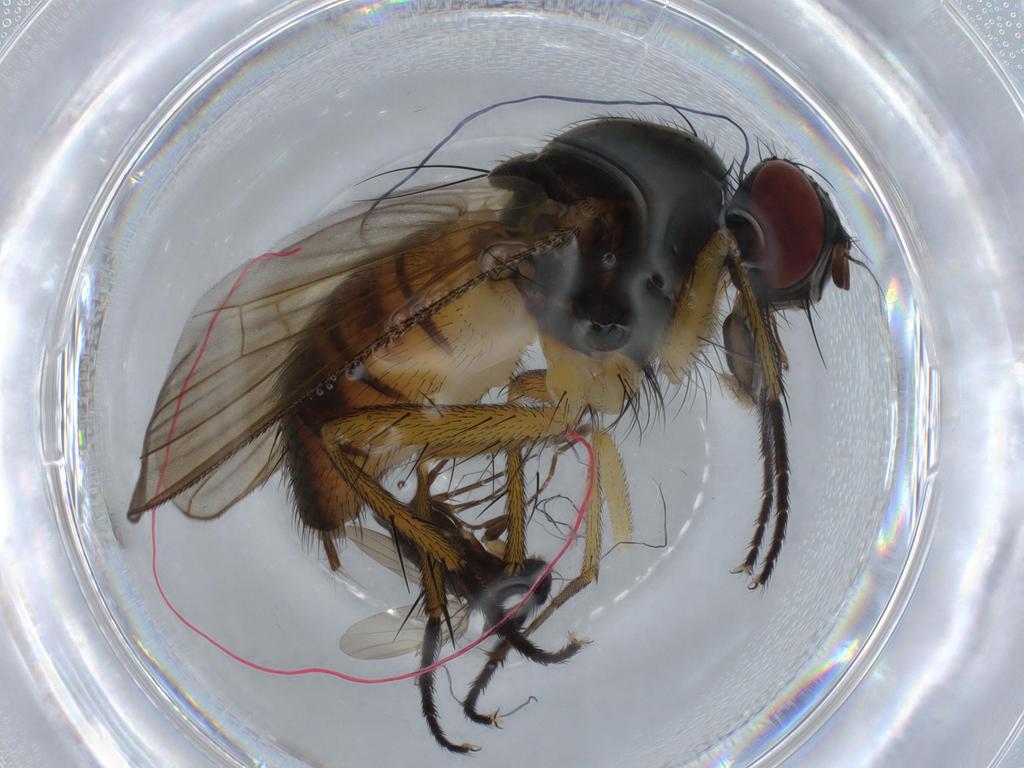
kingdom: Animalia
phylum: Arthropoda
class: Insecta
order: Diptera
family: Muscidae
